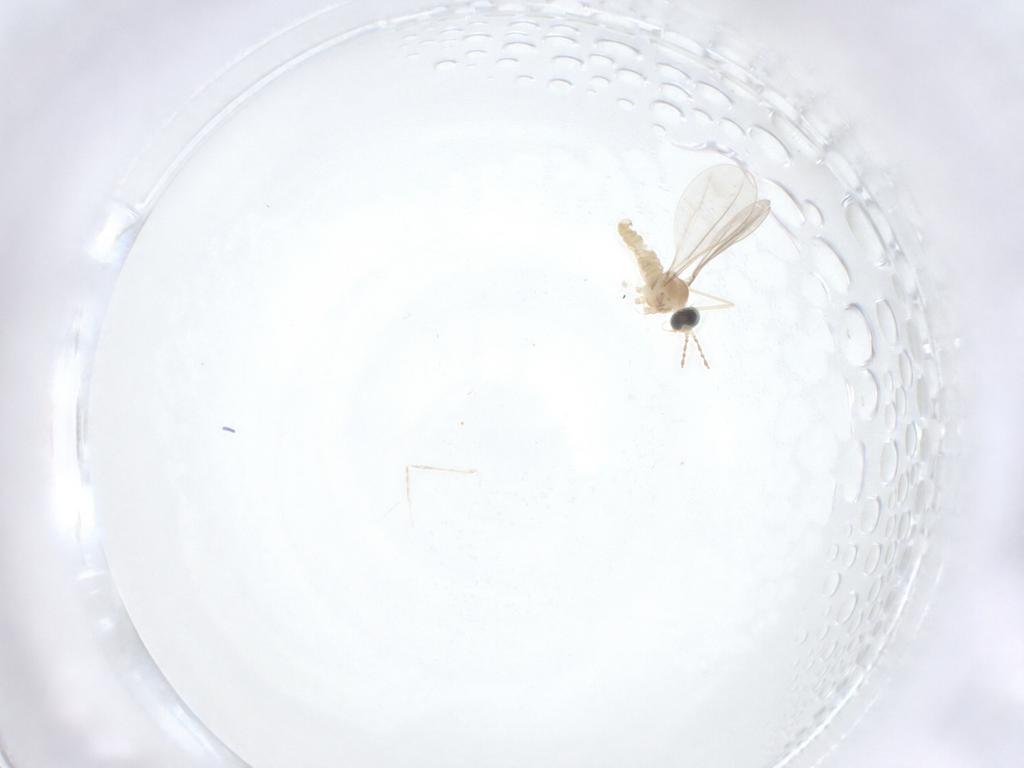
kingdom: Animalia
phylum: Arthropoda
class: Insecta
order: Diptera
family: Cecidomyiidae
